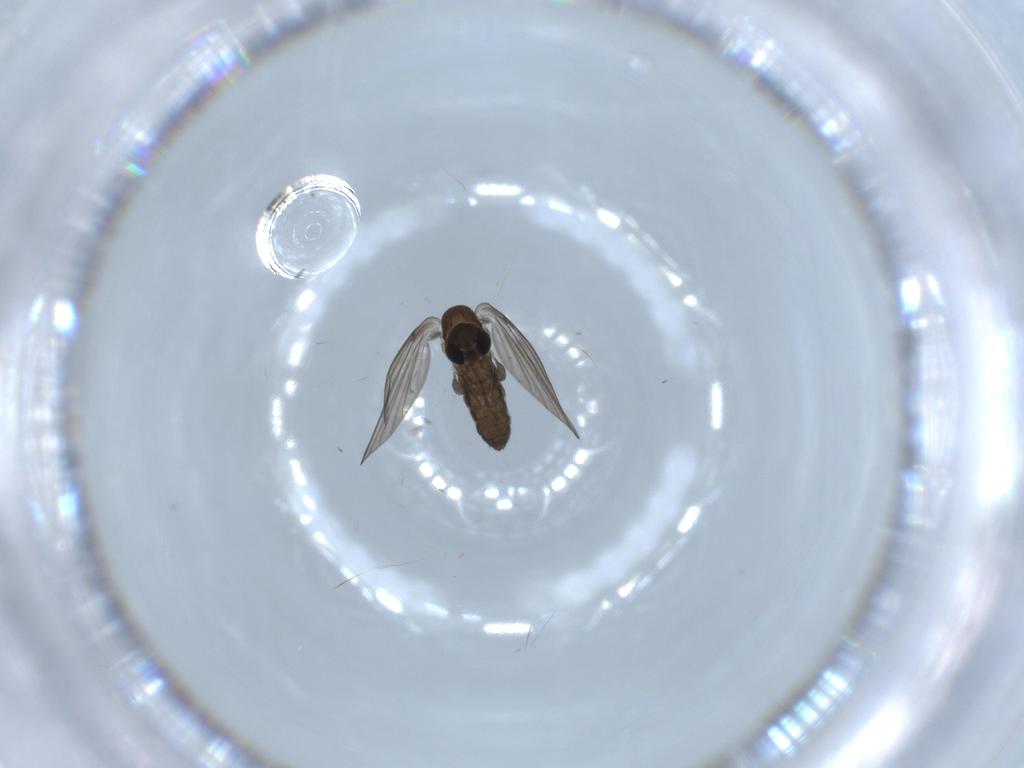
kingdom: Animalia
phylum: Arthropoda
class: Insecta
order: Diptera
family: Psychodidae
